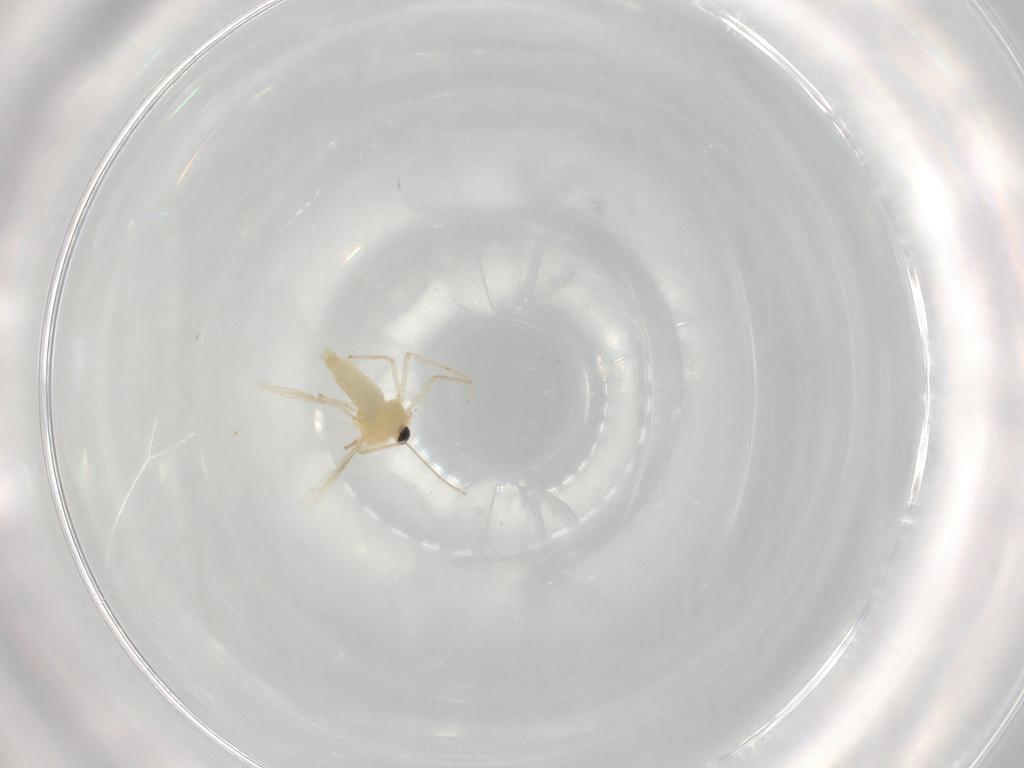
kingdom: Animalia
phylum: Arthropoda
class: Insecta
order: Diptera
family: Chironomidae
